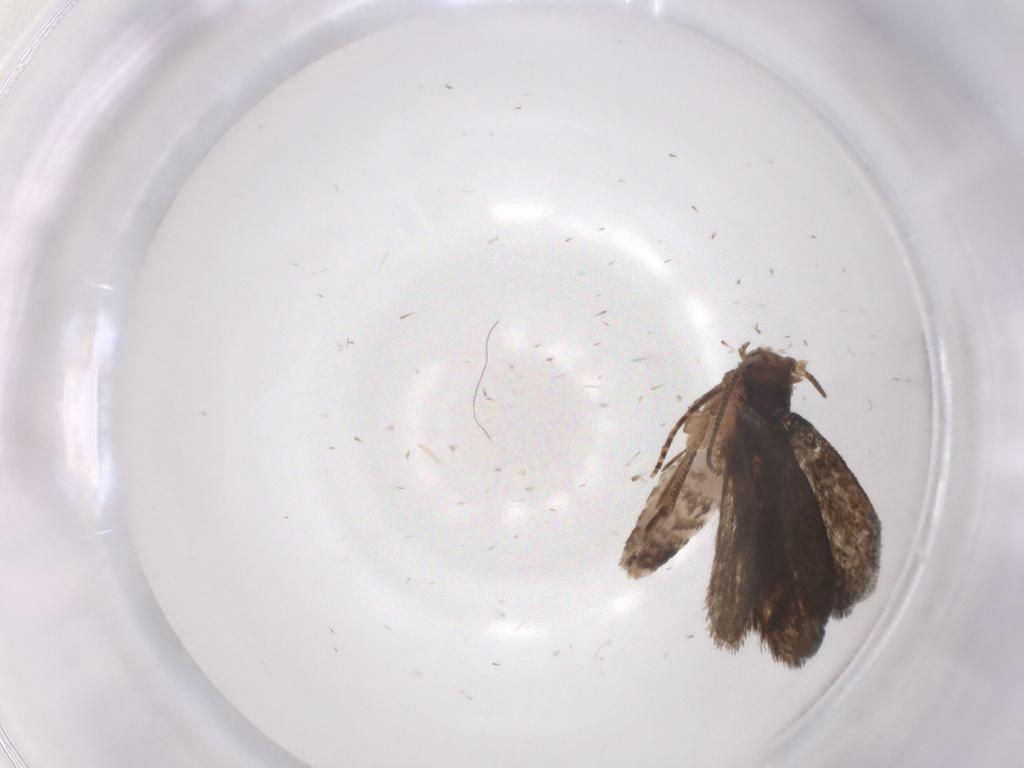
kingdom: Animalia
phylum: Arthropoda
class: Insecta
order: Lepidoptera
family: Tineidae
